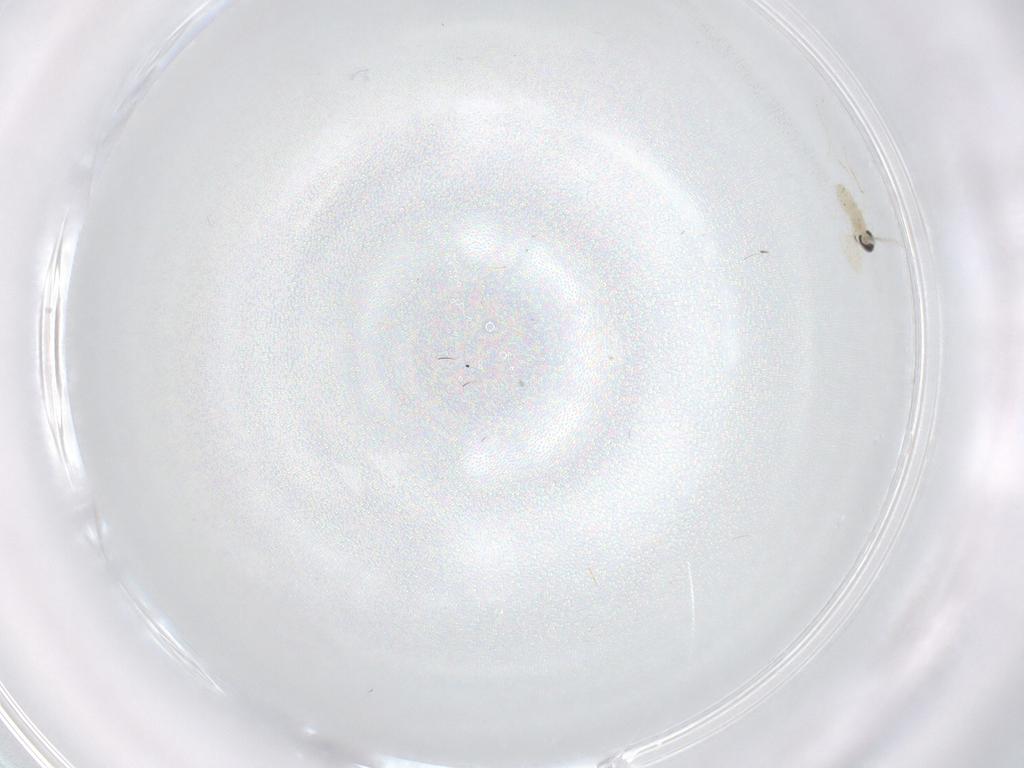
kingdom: Animalia
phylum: Arthropoda
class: Insecta
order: Diptera
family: Cecidomyiidae
